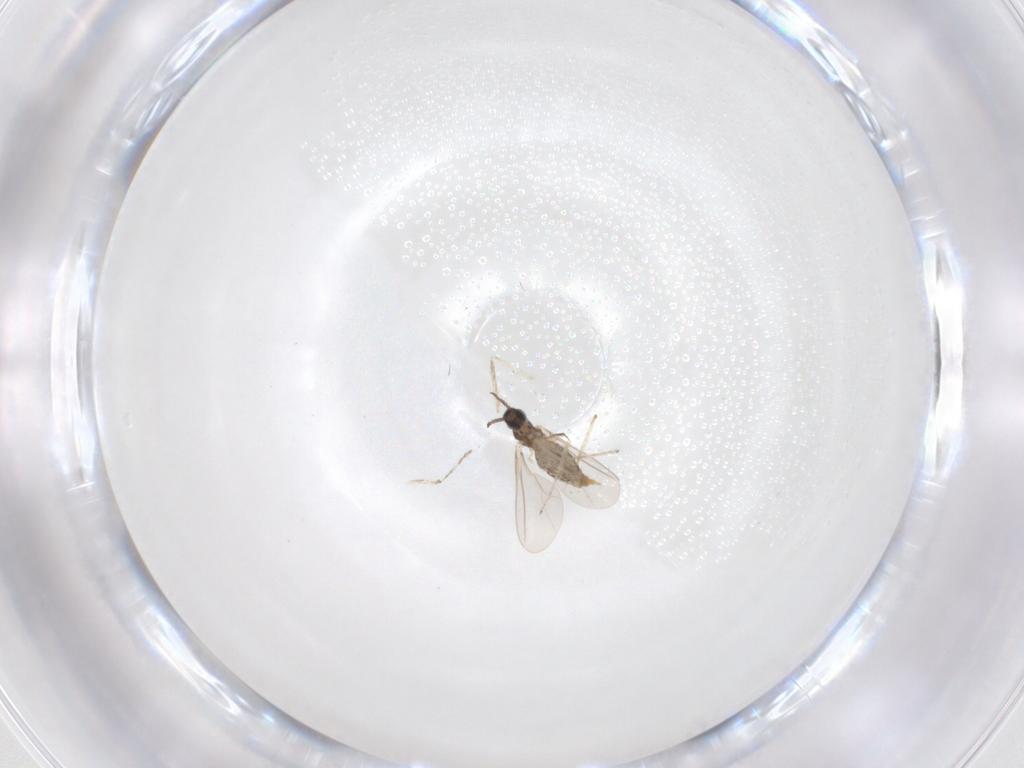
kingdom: Animalia
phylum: Arthropoda
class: Insecta
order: Diptera
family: Cecidomyiidae
